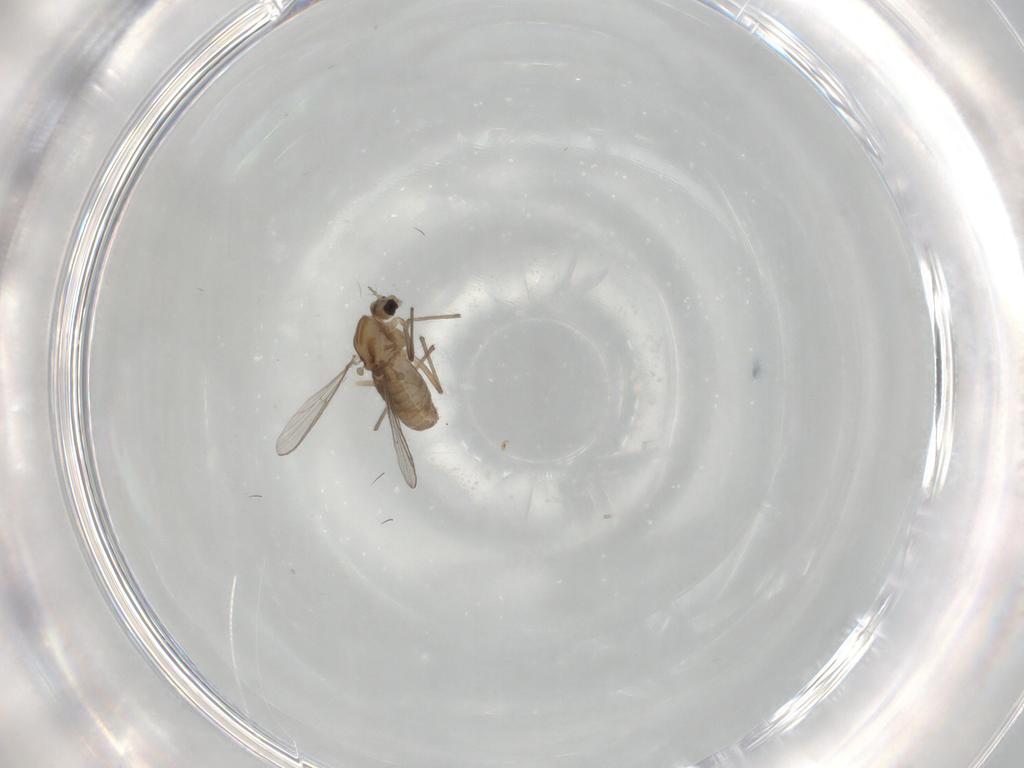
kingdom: Animalia
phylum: Arthropoda
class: Insecta
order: Diptera
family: Chironomidae
